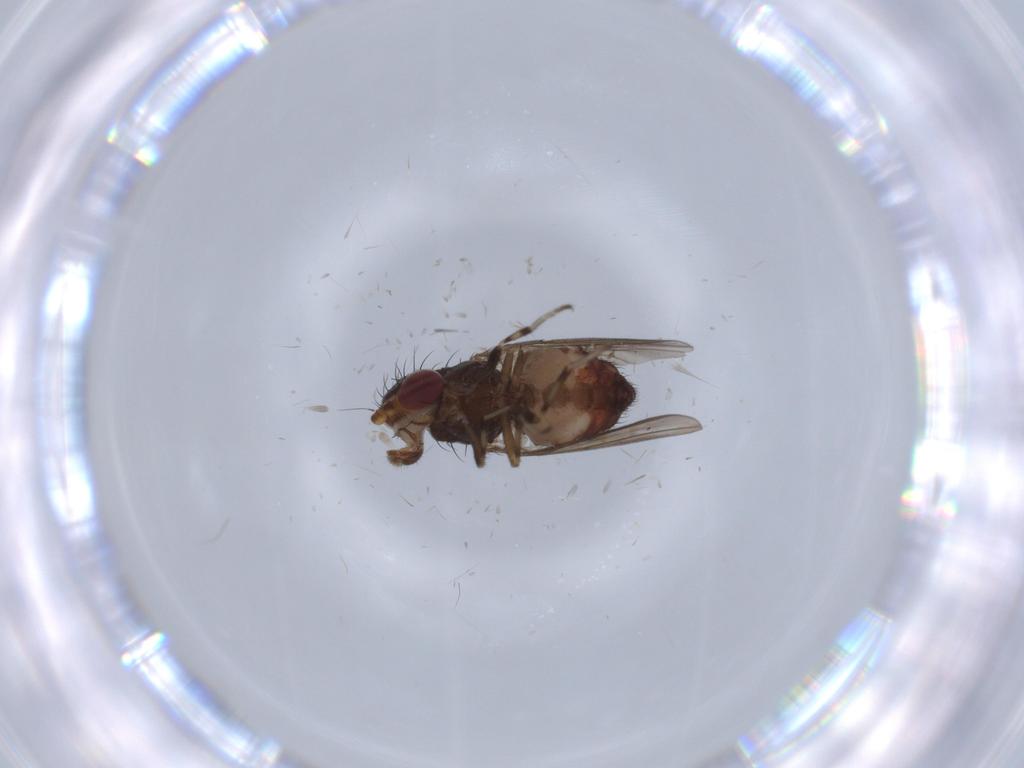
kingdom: Animalia
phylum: Arthropoda
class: Insecta
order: Diptera
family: Heleomyzidae
